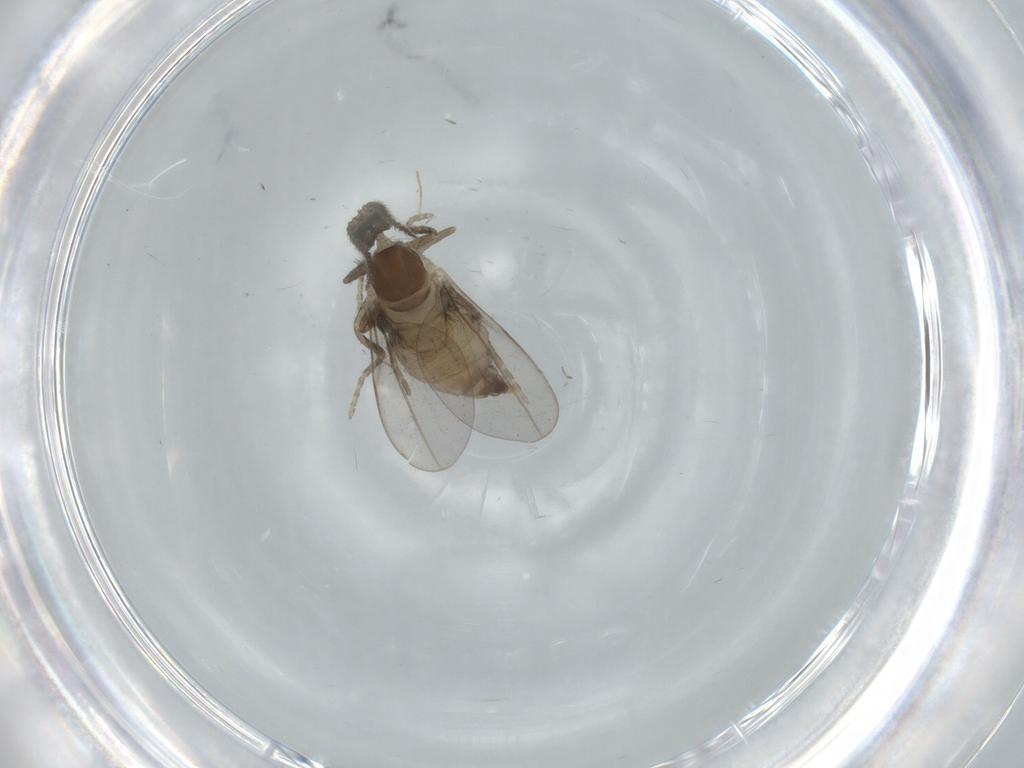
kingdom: Animalia
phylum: Arthropoda
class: Insecta
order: Diptera
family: Cecidomyiidae
